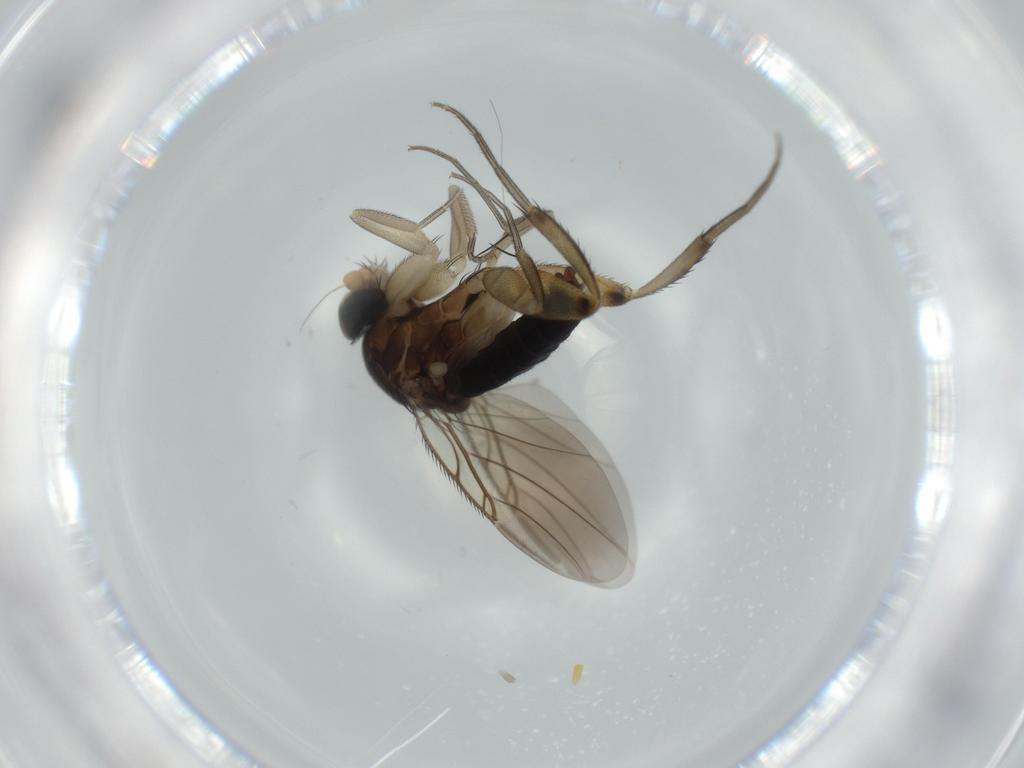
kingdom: Animalia
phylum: Arthropoda
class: Insecta
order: Diptera
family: Phoridae
